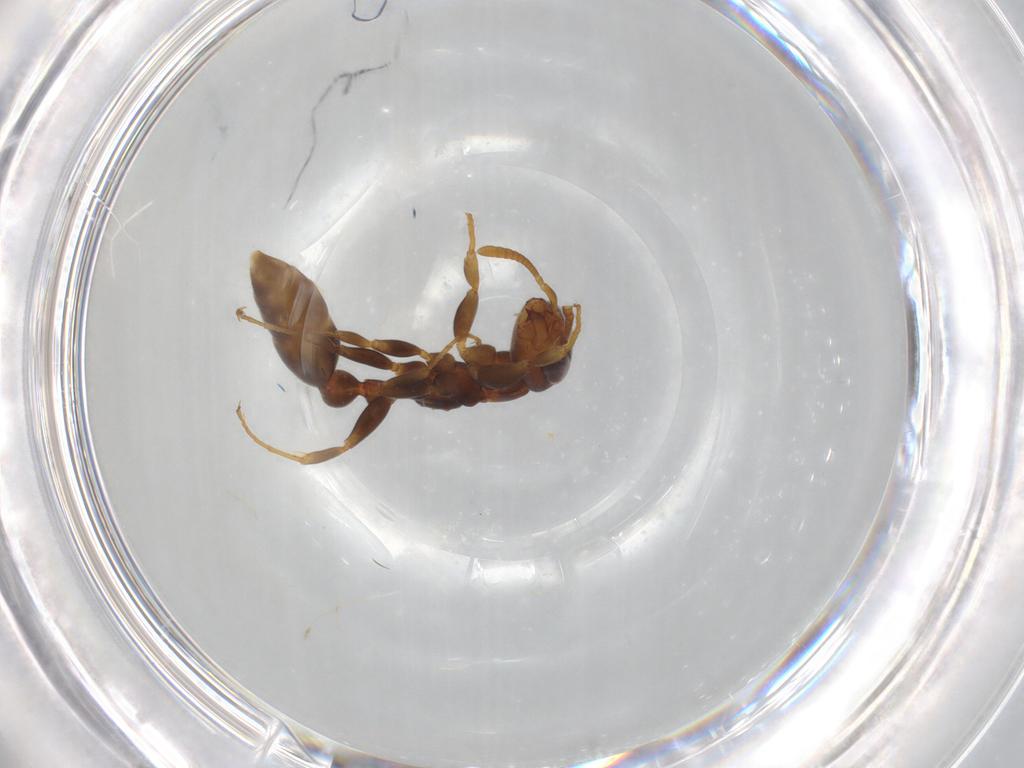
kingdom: Animalia
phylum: Arthropoda
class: Insecta
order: Hymenoptera
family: Formicidae
